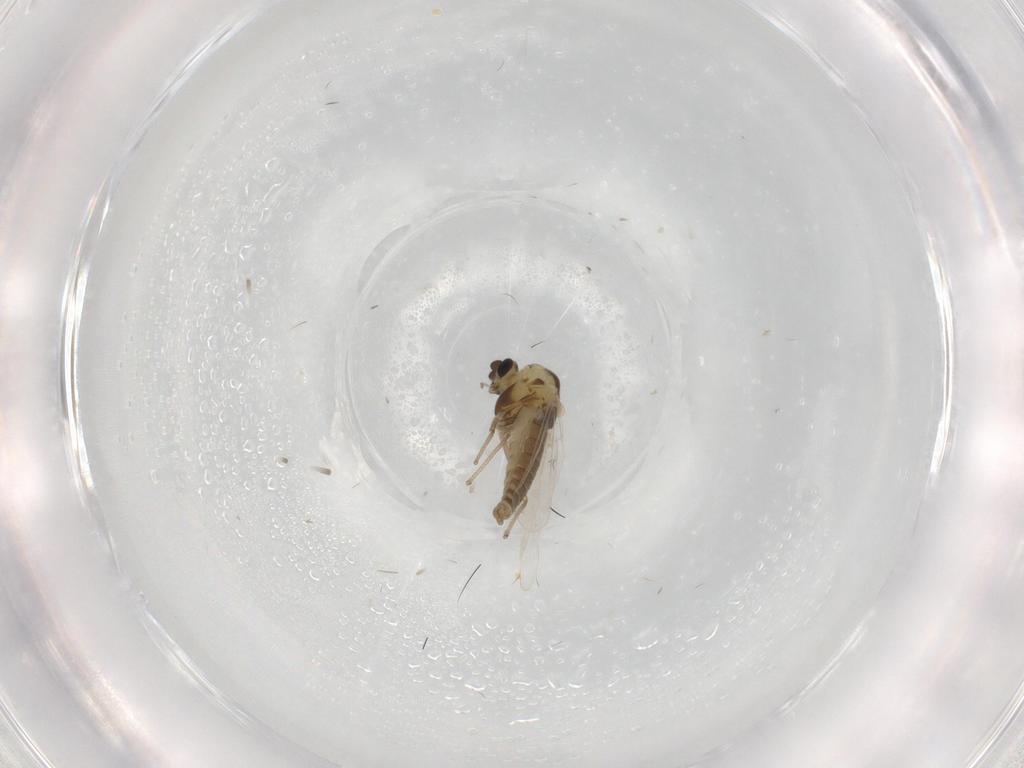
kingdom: Animalia
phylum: Arthropoda
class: Insecta
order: Diptera
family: Chironomidae
